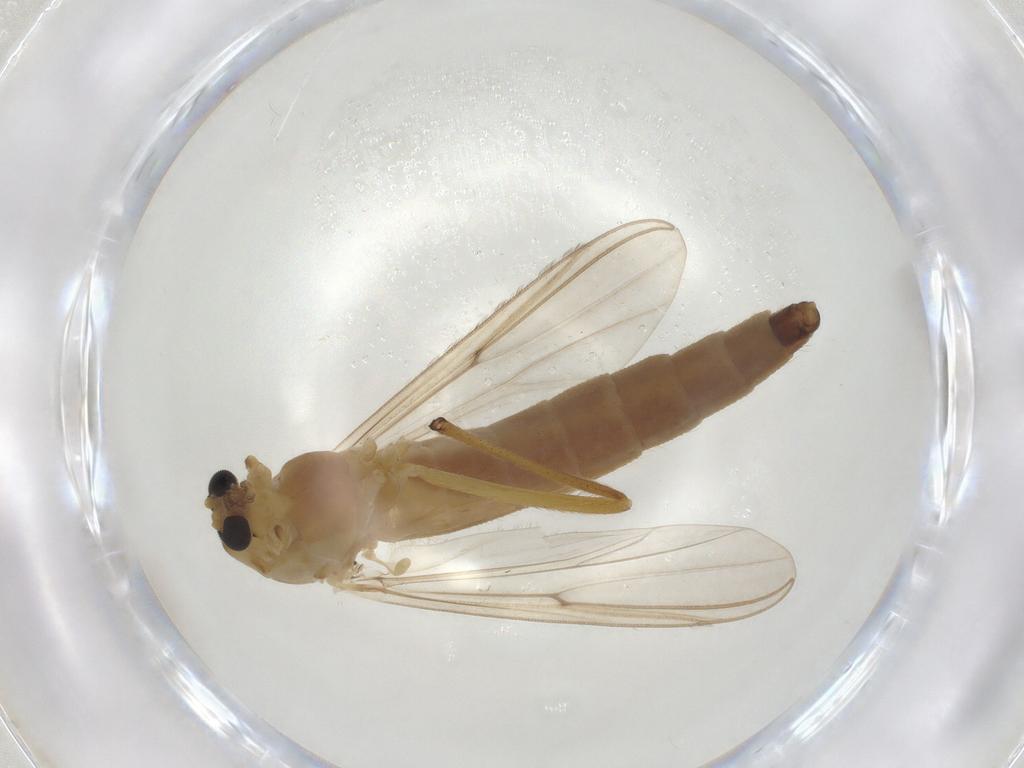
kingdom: Animalia
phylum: Arthropoda
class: Insecta
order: Diptera
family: Chironomidae
